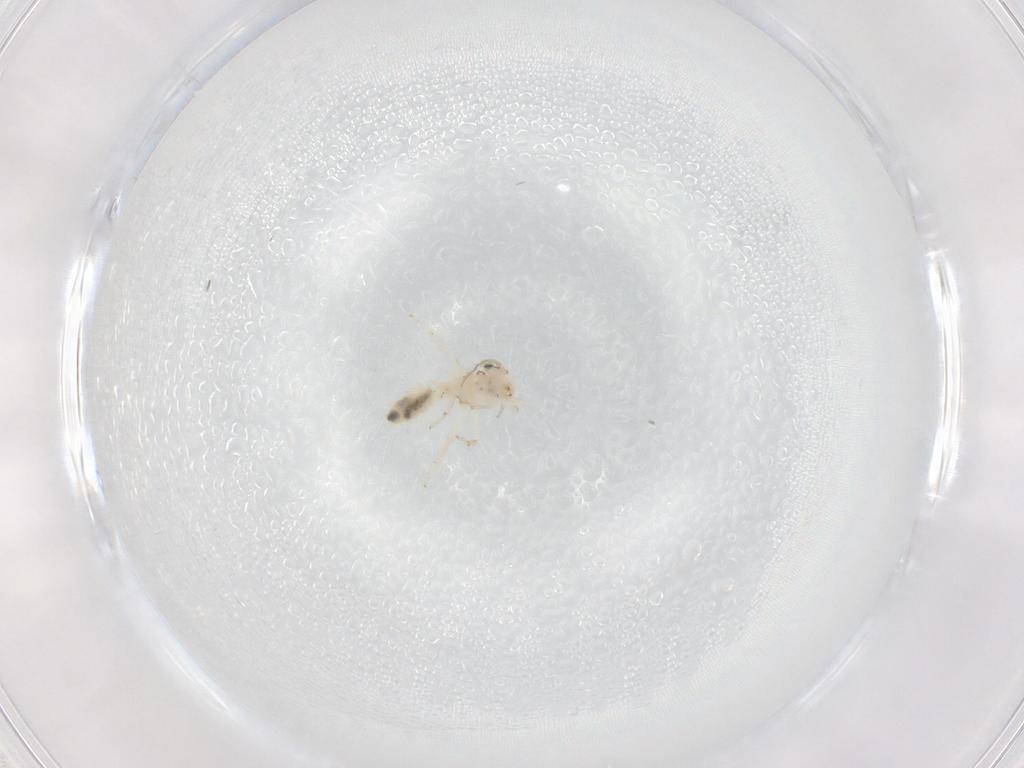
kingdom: Animalia
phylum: Arthropoda
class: Insecta
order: Psocodea
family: Lepidopsocidae
